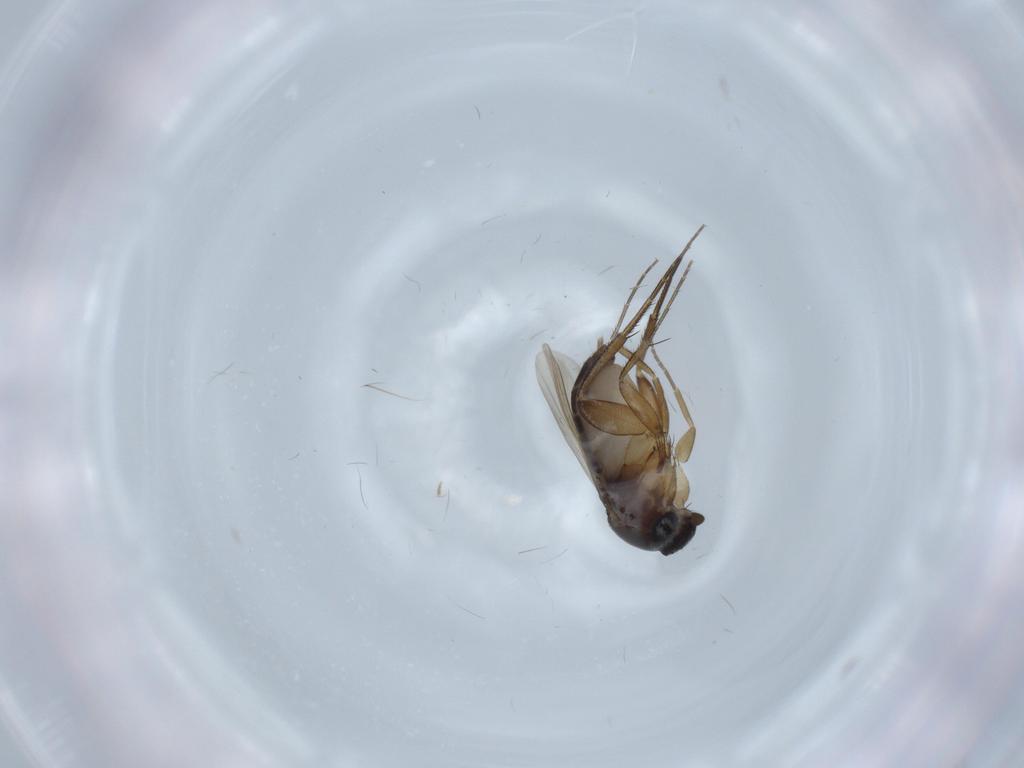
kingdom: Animalia
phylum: Arthropoda
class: Insecta
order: Diptera
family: Phoridae
